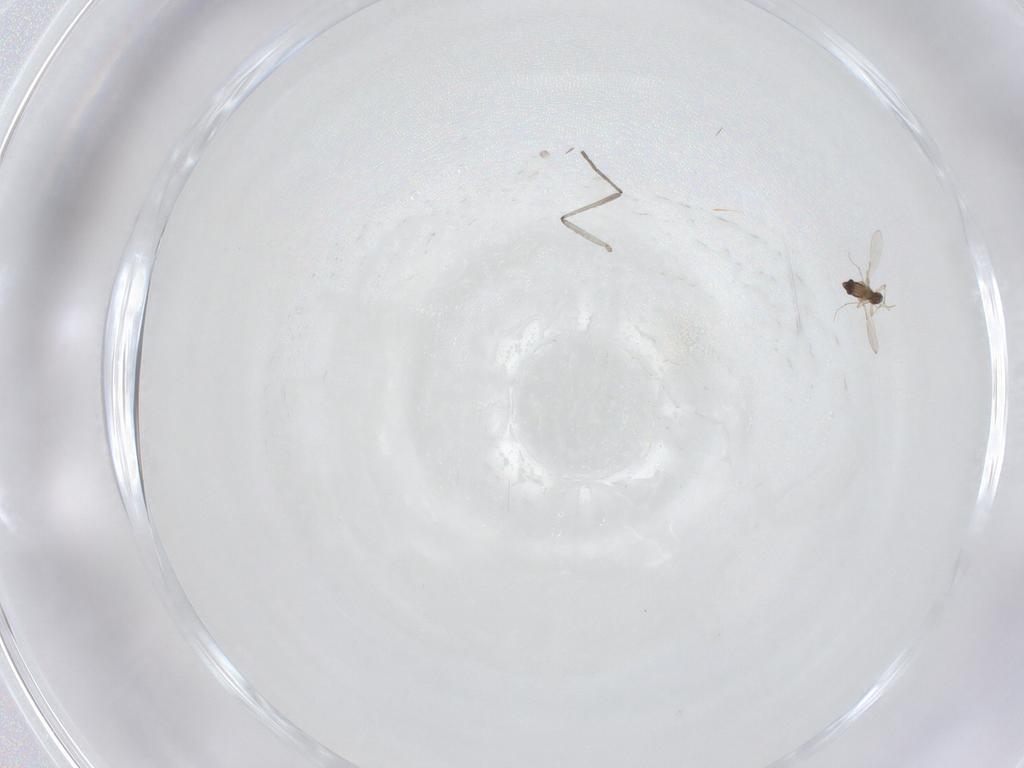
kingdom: Animalia
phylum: Arthropoda
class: Insecta
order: Diptera
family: Chironomidae
